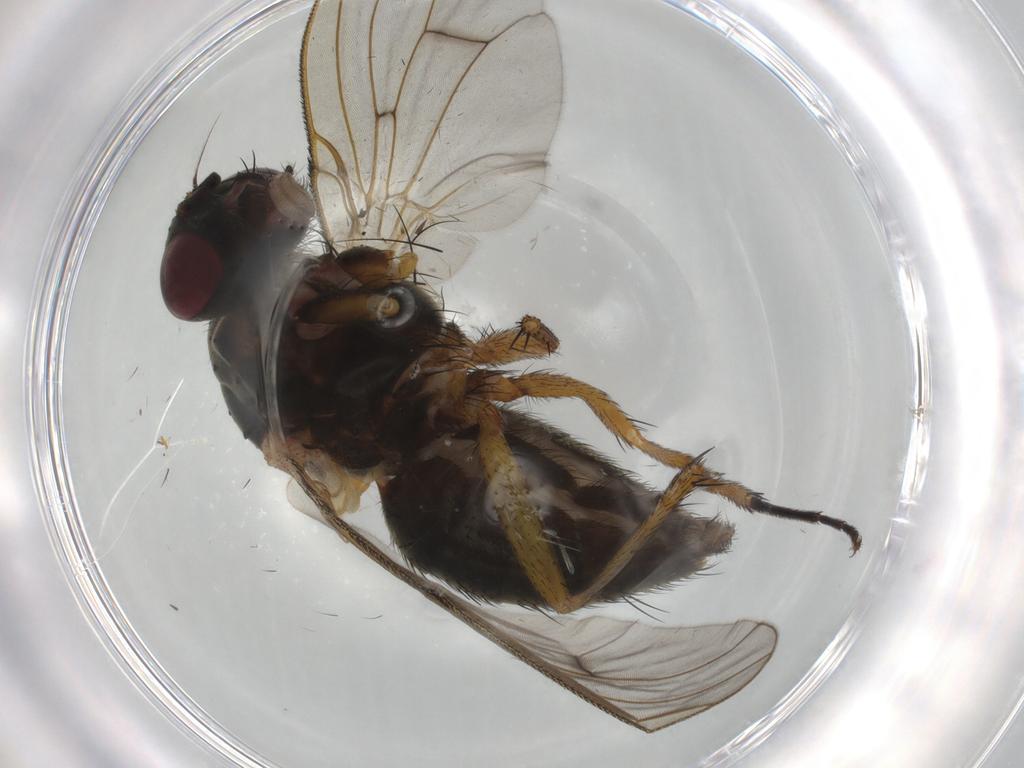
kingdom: Animalia
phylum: Arthropoda
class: Insecta
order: Diptera
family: Muscidae
